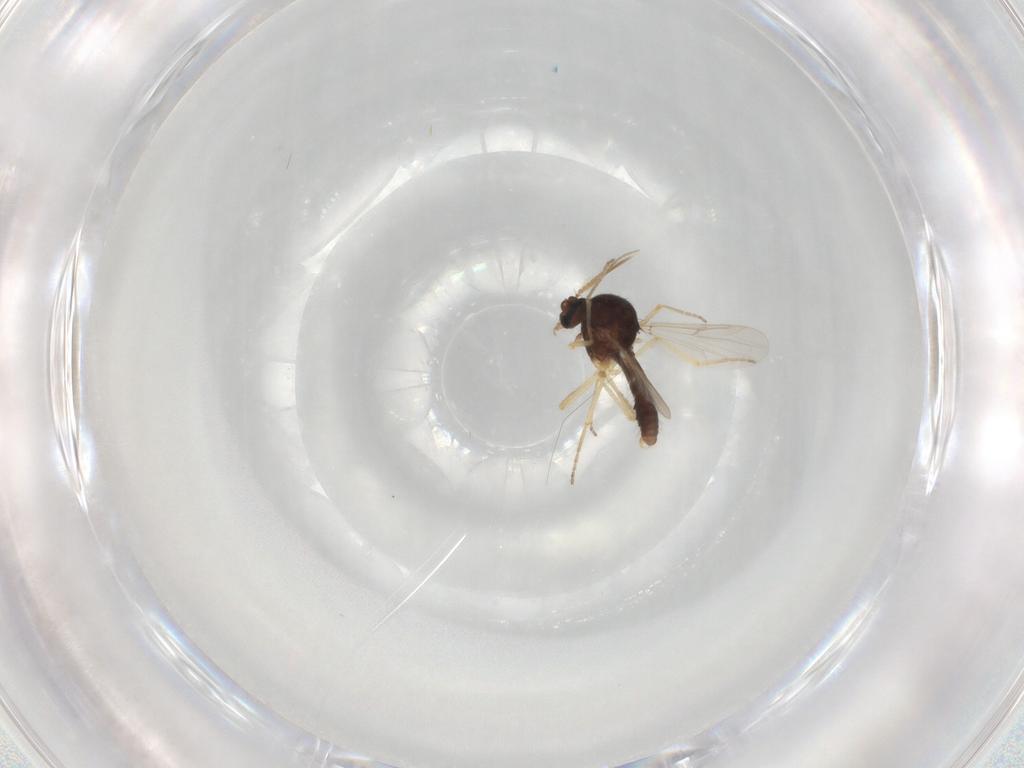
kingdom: Animalia
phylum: Arthropoda
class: Insecta
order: Diptera
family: Ceratopogonidae
